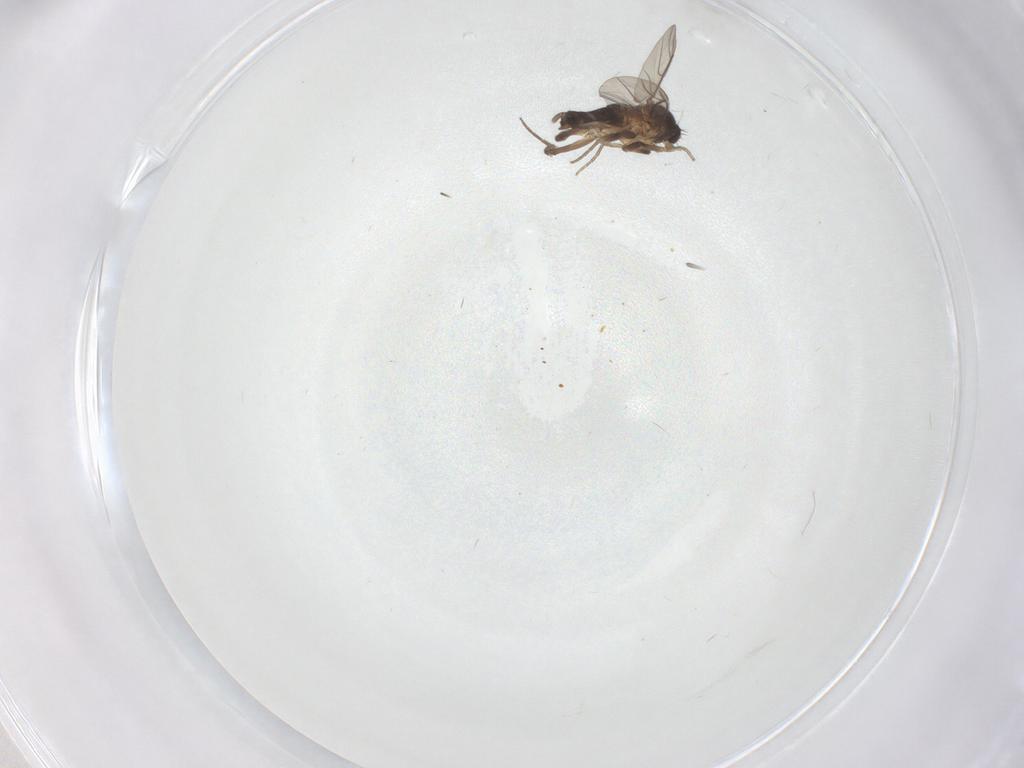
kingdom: Animalia
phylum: Arthropoda
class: Insecta
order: Diptera
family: Phoridae
